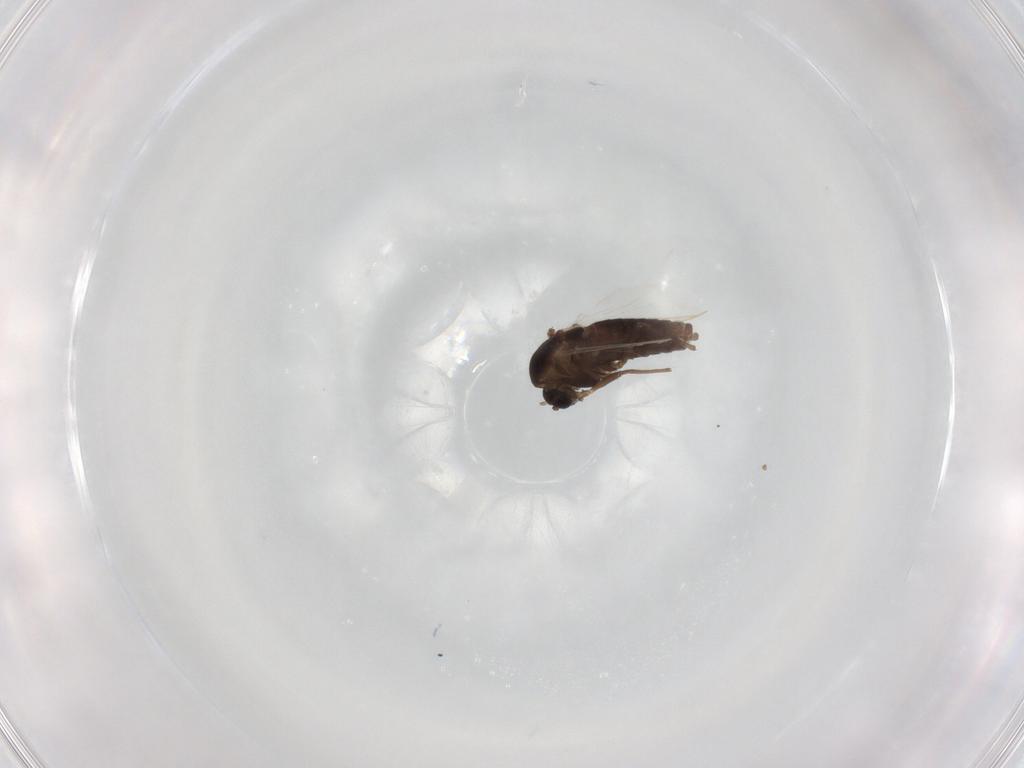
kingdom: Animalia
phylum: Arthropoda
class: Insecta
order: Diptera
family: Chironomidae
